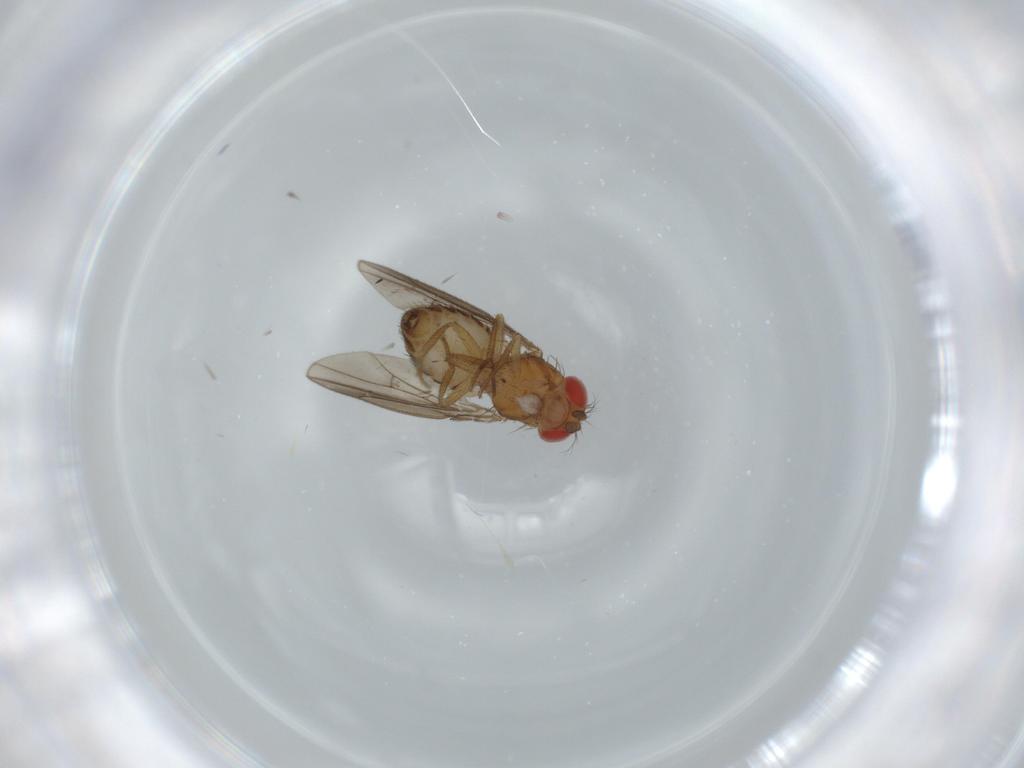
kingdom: Animalia
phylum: Arthropoda
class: Insecta
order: Diptera
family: Drosophilidae
